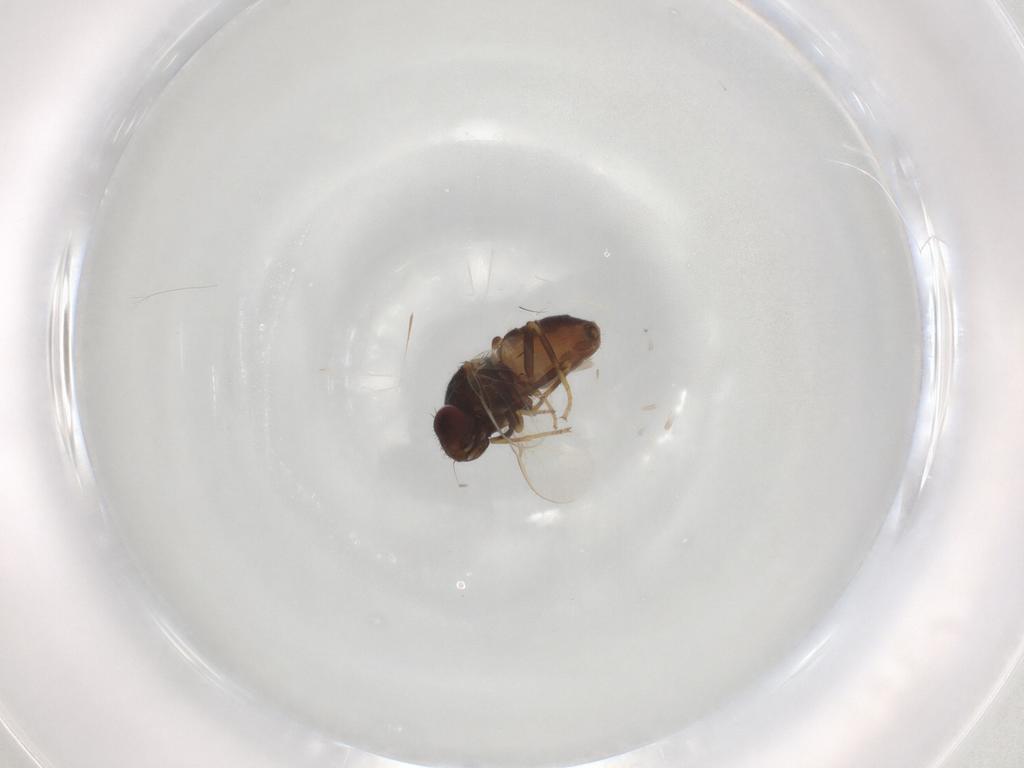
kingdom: Animalia
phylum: Arthropoda
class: Insecta
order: Diptera
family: Chloropidae
